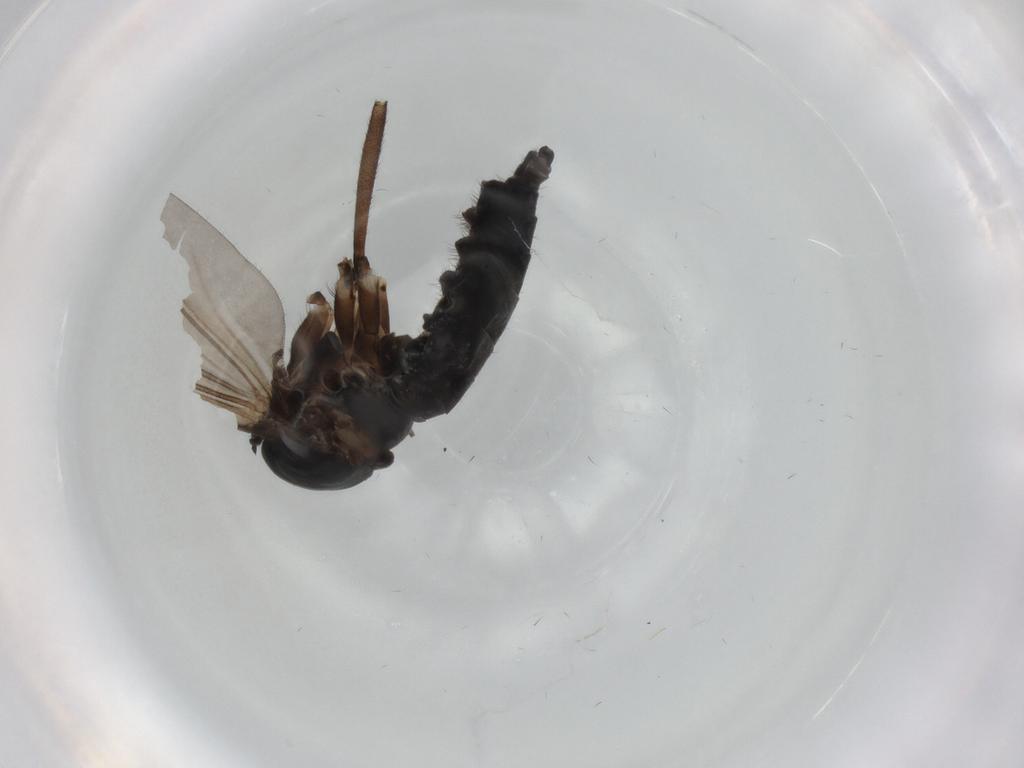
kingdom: Animalia
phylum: Arthropoda
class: Insecta
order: Diptera
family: Sciaridae
